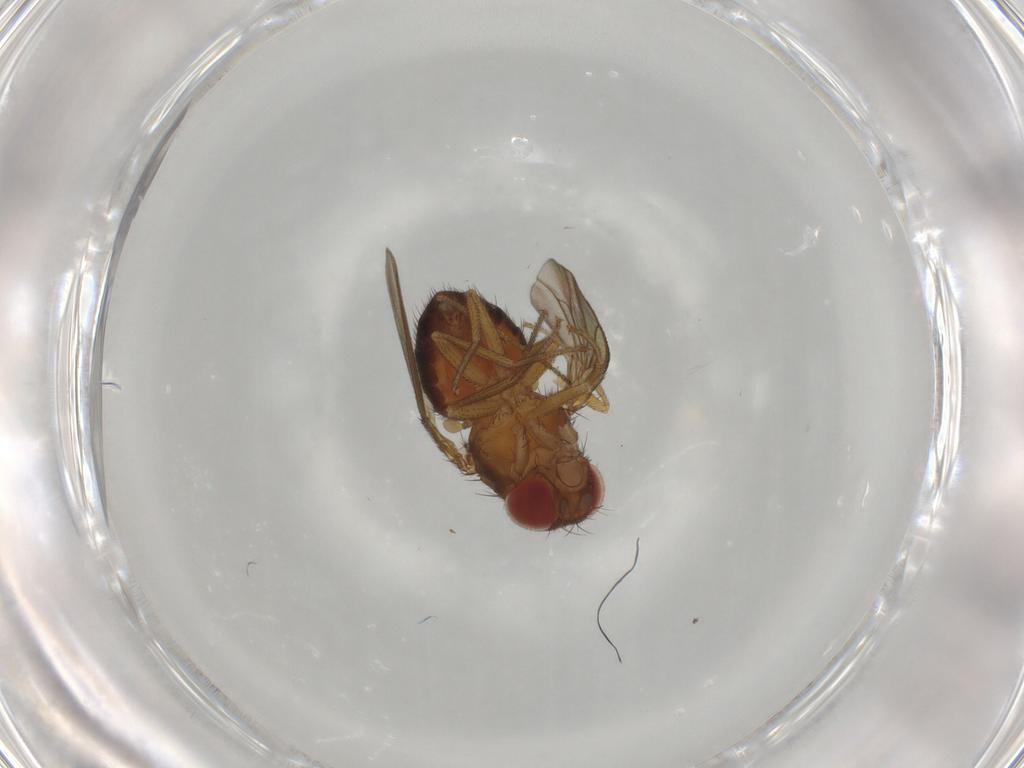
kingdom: Animalia
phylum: Arthropoda
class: Insecta
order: Diptera
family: Drosophilidae
